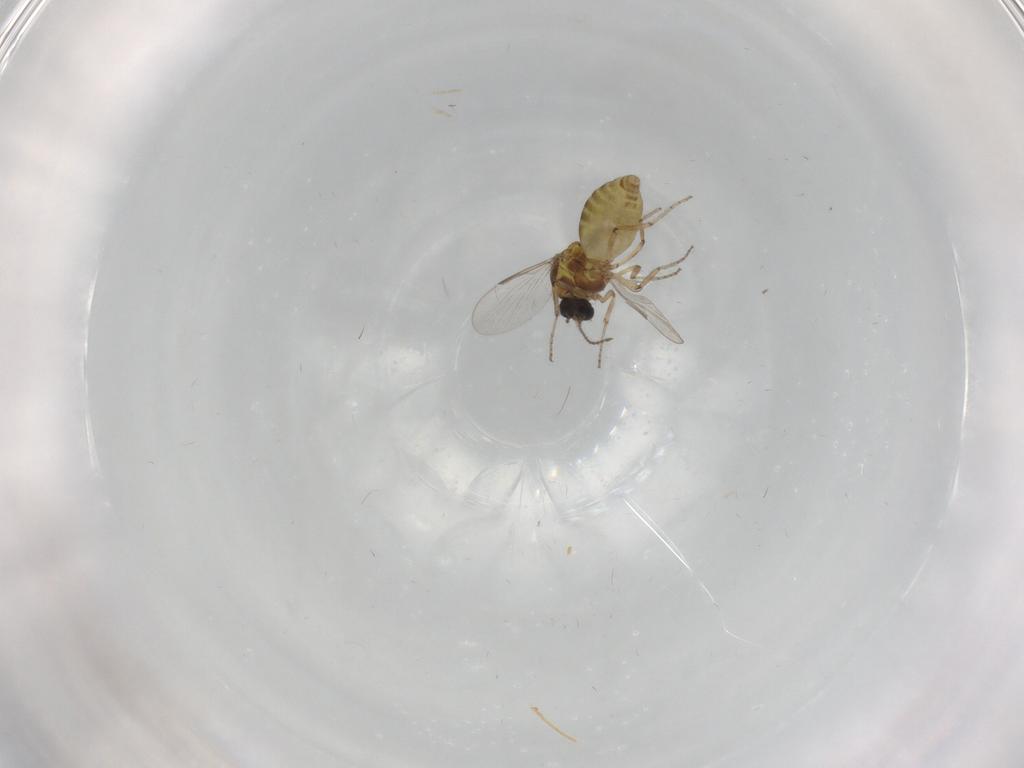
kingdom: Animalia
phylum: Arthropoda
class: Insecta
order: Diptera
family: Ceratopogonidae
